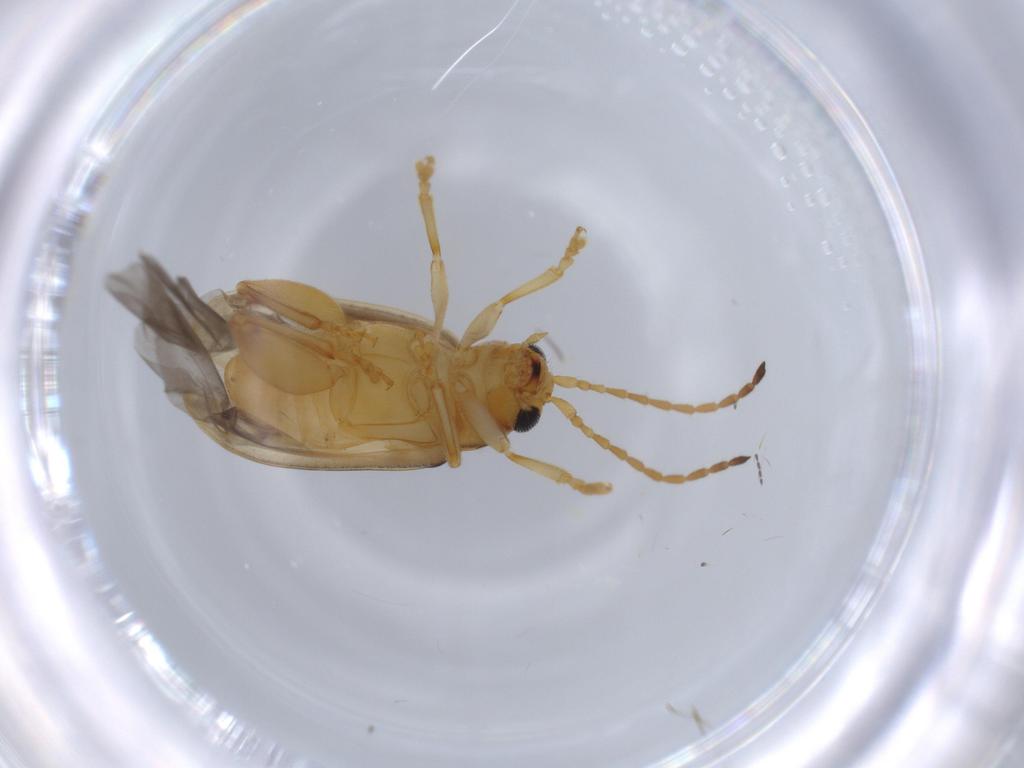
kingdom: Animalia
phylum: Arthropoda
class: Insecta
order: Coleoptera
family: Chrysomelidae
